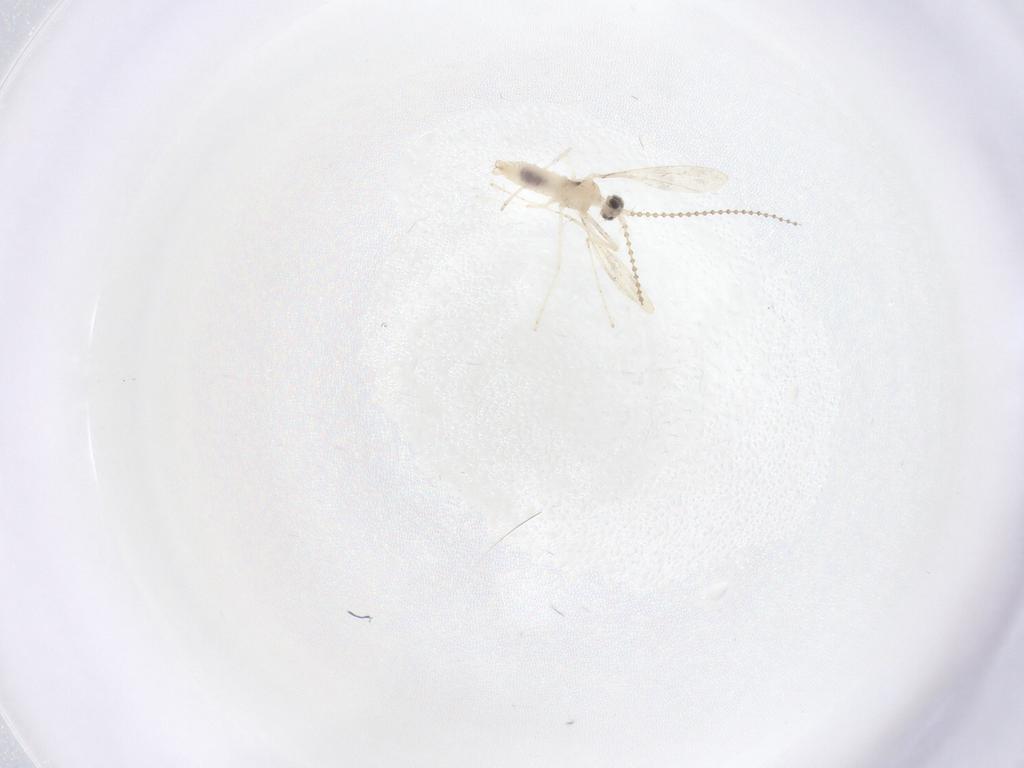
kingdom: Animalia
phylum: Arthropoda
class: Insecta
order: Diptera
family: Cecidomyiidae
